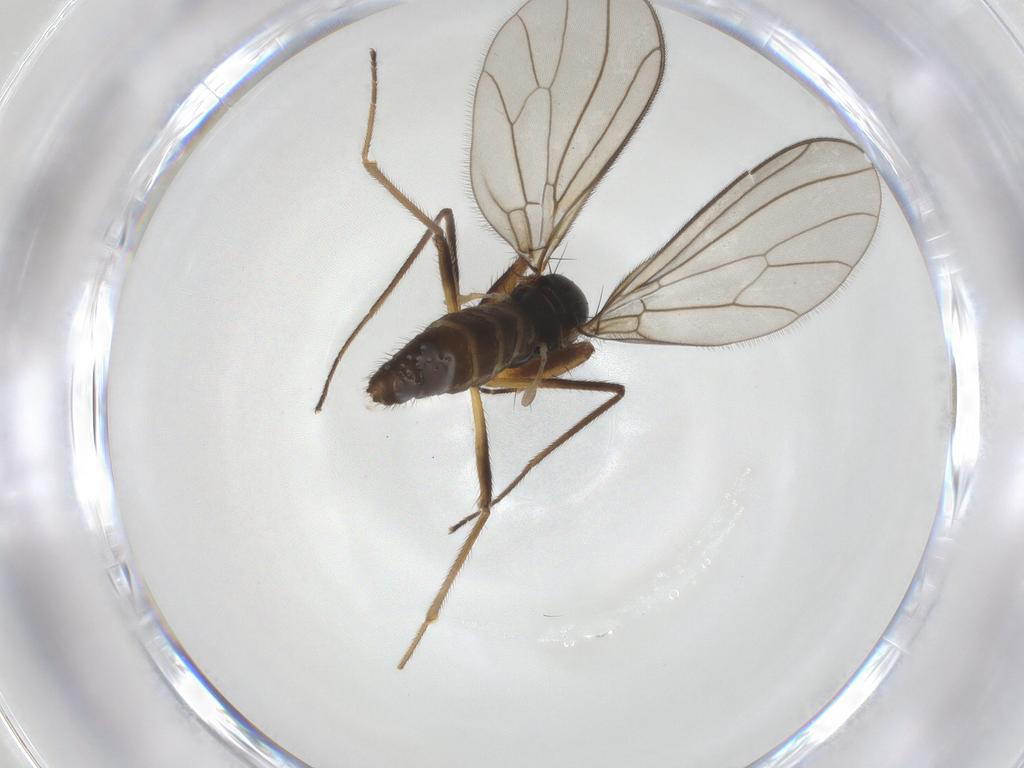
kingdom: Animalia
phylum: Arthropoda
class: Insecta
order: Diptera
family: Empididae
